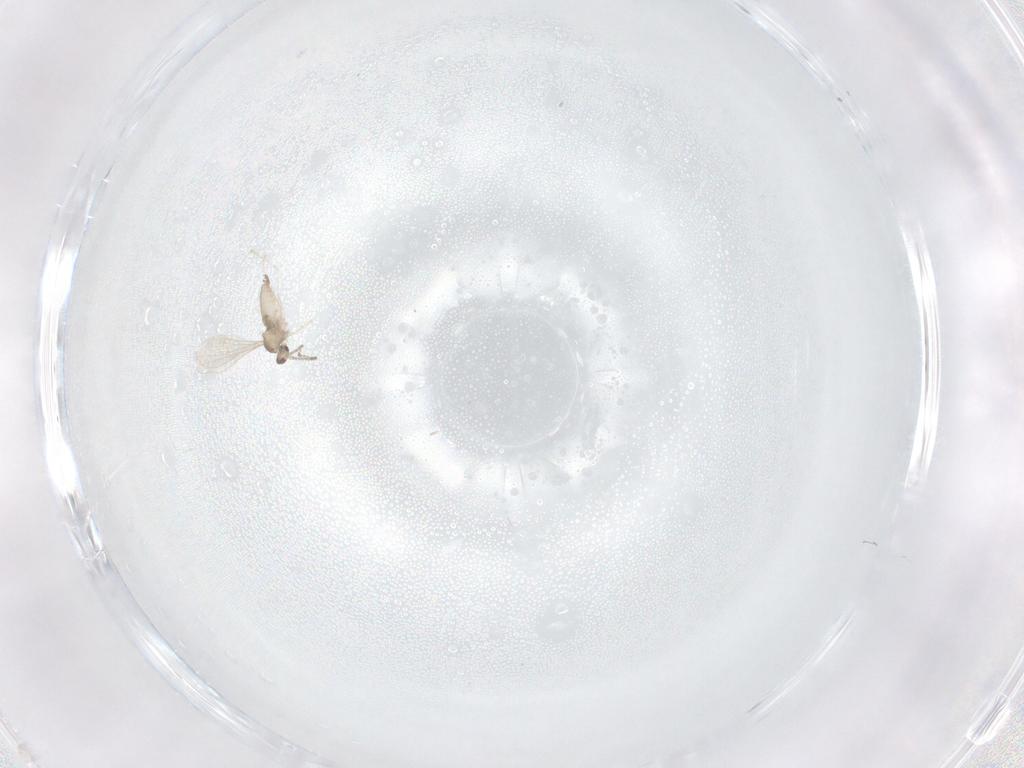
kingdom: Animalia
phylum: Arthropoda
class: Insecta
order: Diptera
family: Cecidomyiidae
